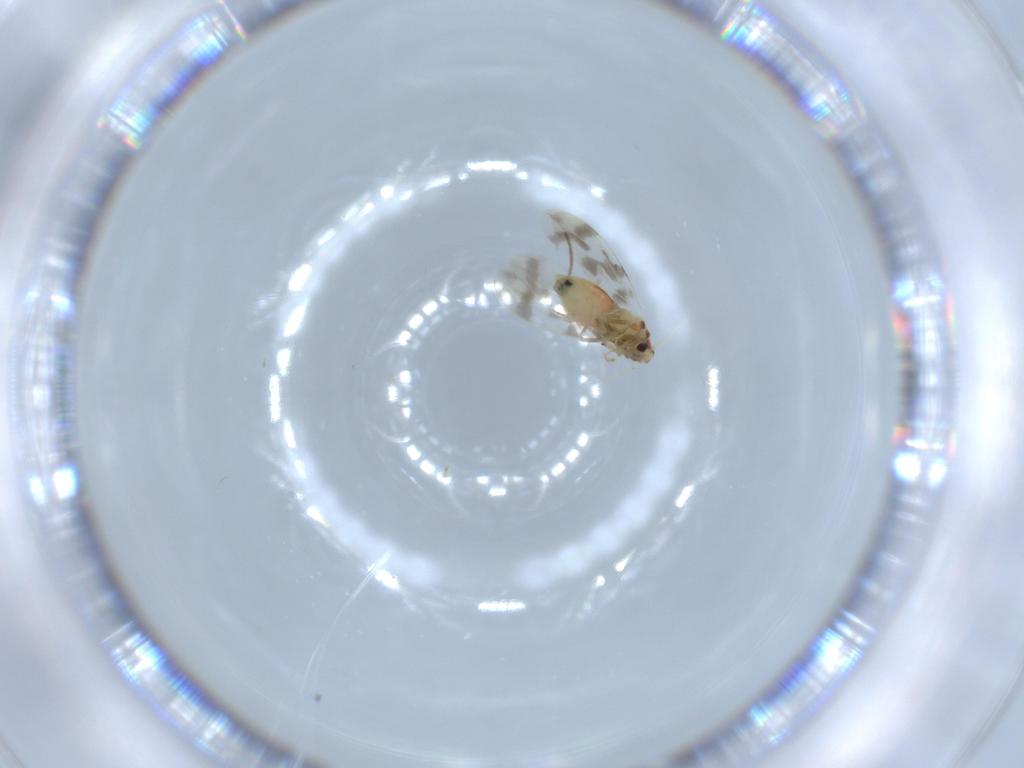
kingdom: Animalia
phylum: Arthropoda
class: Insecta
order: Hemiptera
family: Aleyrodidae
